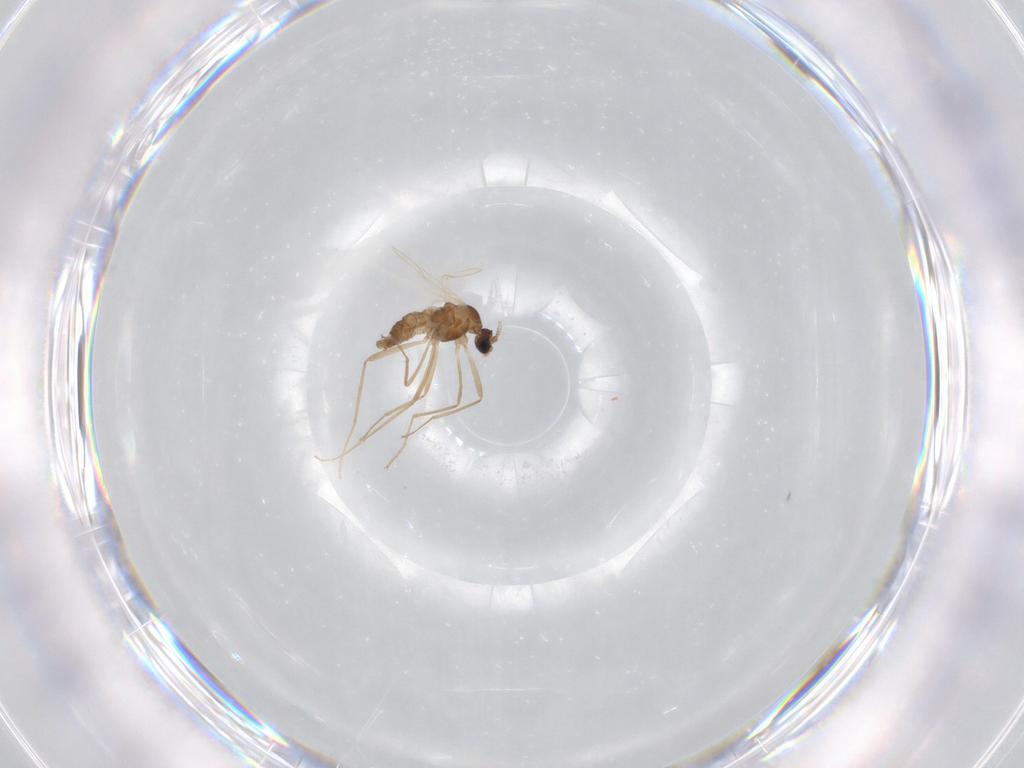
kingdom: Animalia
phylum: Arthropoda
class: Insecta
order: Diptera
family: Cecidomyiidae
